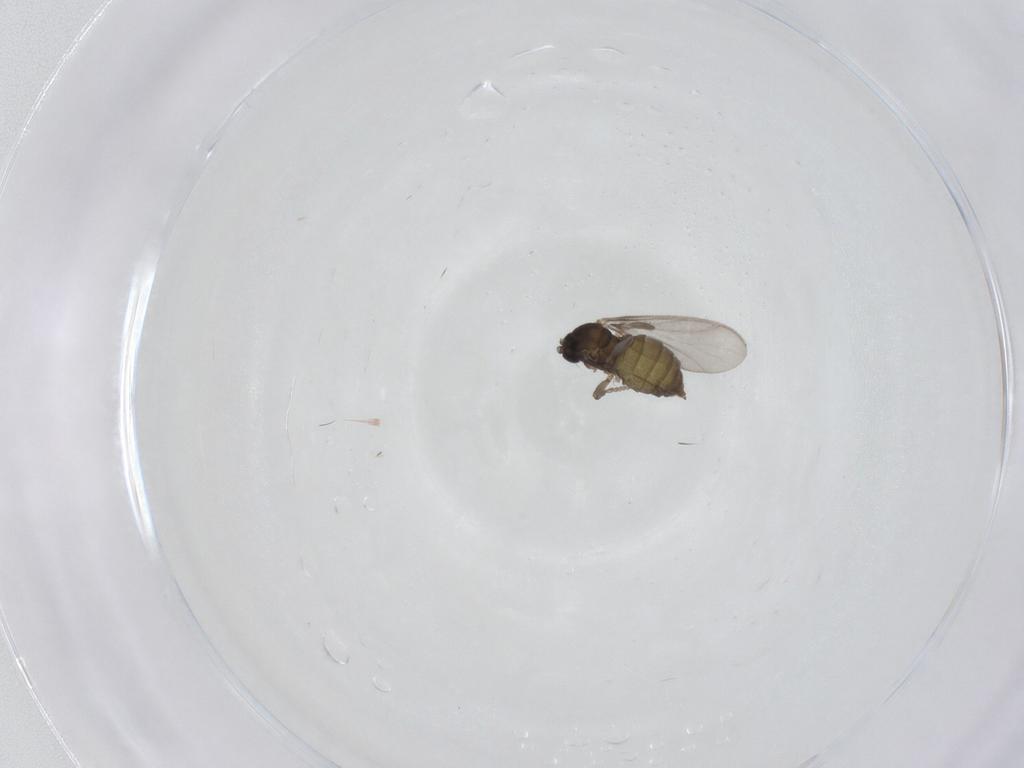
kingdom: Animalia
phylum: Arthropoda
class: Insecta
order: Diptera
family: Sciaridae
